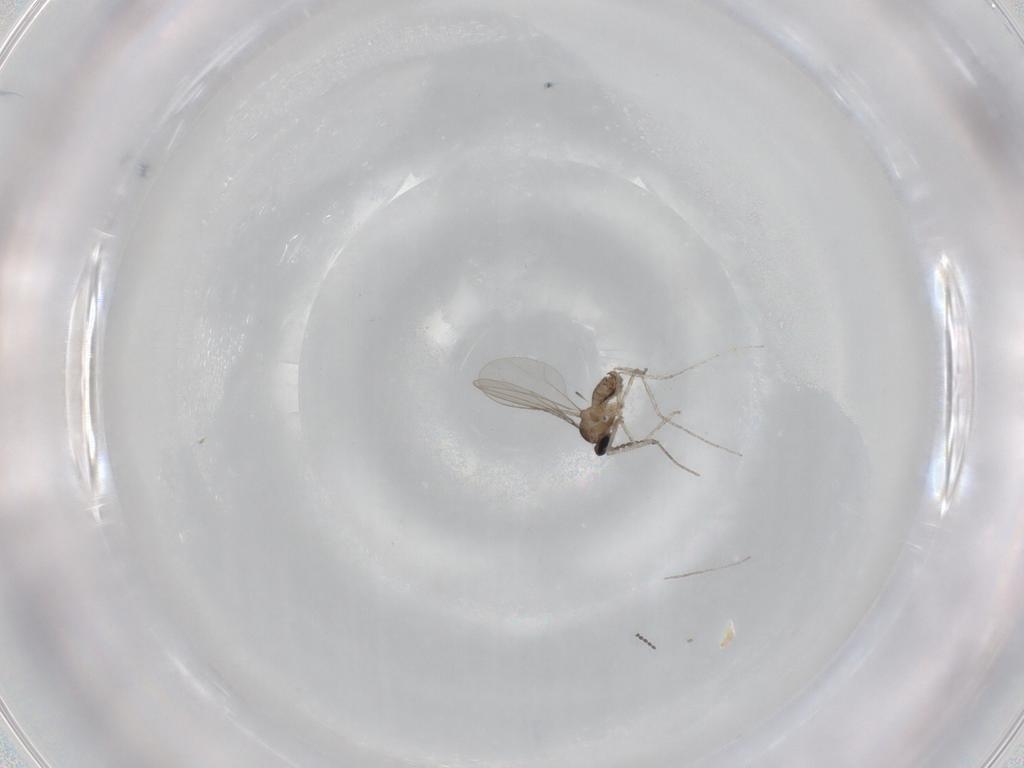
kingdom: Animalia
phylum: Arthropoda
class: Insecta
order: Diptera
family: Cecidomyiidae
